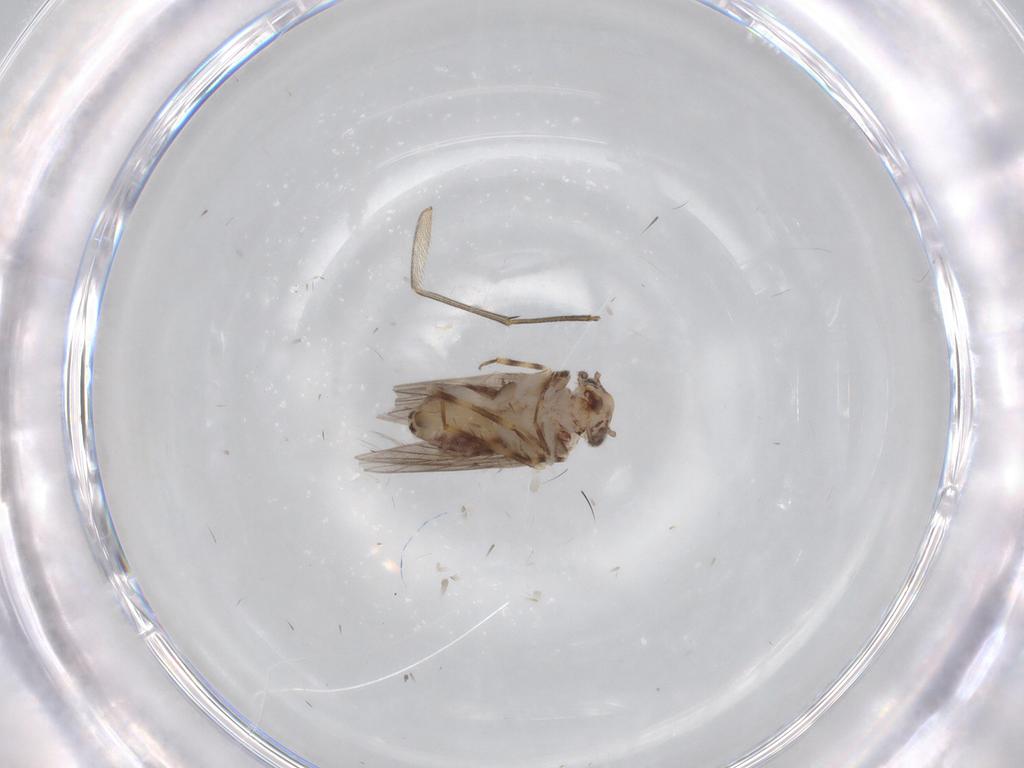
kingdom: Animalia
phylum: Arthropoda
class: Insecta
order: Psocodea
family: Lepidopsocidae
